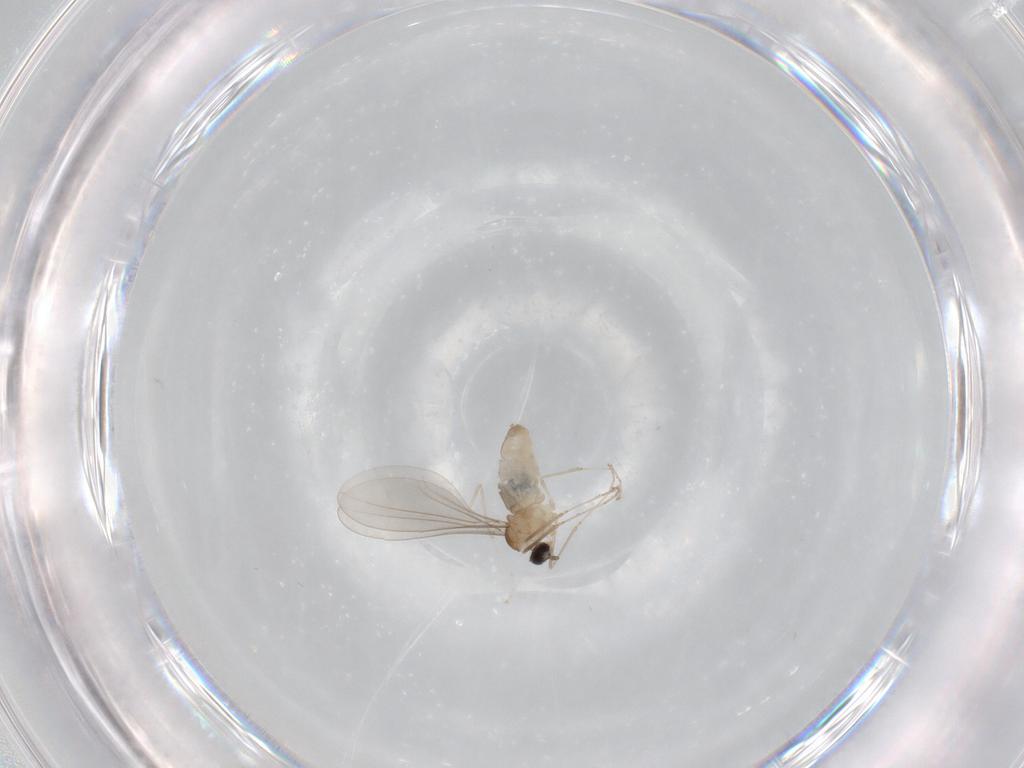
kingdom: Animalia
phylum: Arthropoda
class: Insecta
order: Diptera
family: Cecidomyiidae
